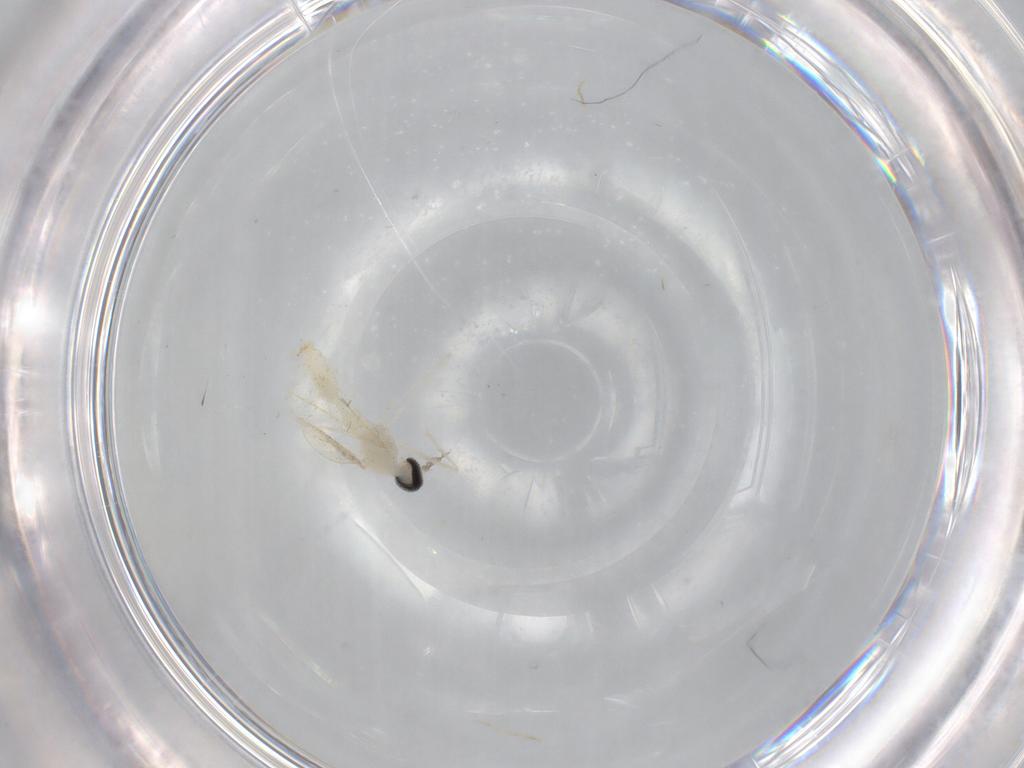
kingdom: Animalia
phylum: Arthropoda
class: Insecta
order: Diptera
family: Cecidomyiidae
